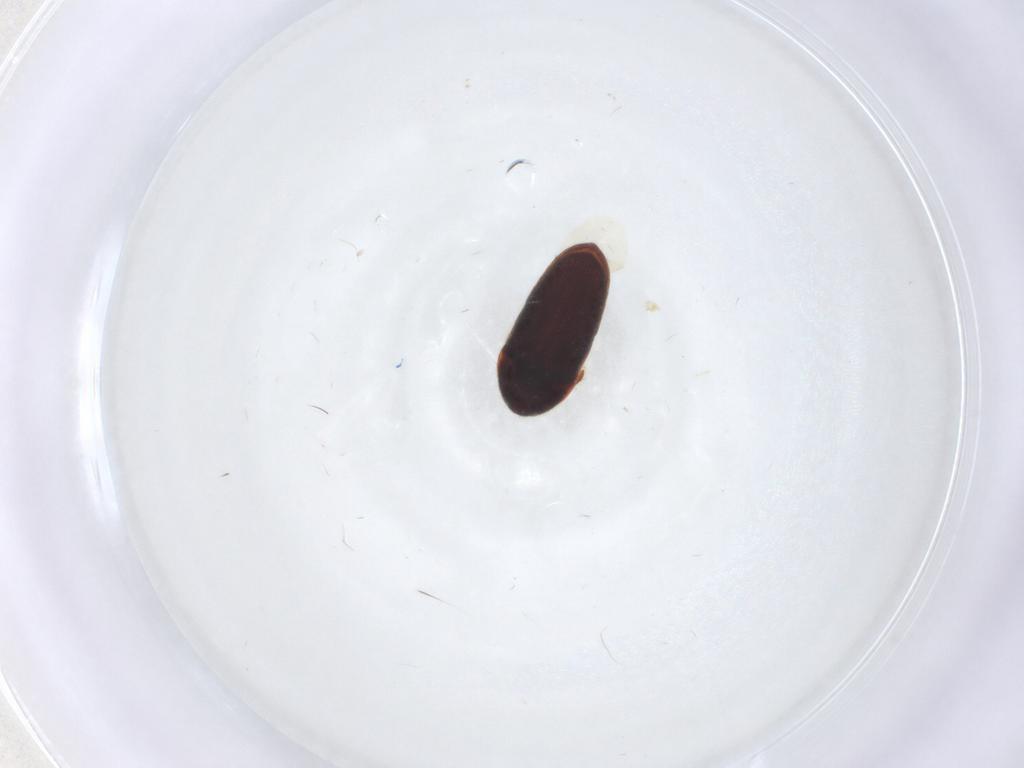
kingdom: Animalia
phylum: Arthropoda
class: Insecta
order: Coleoptera
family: Throscidae
